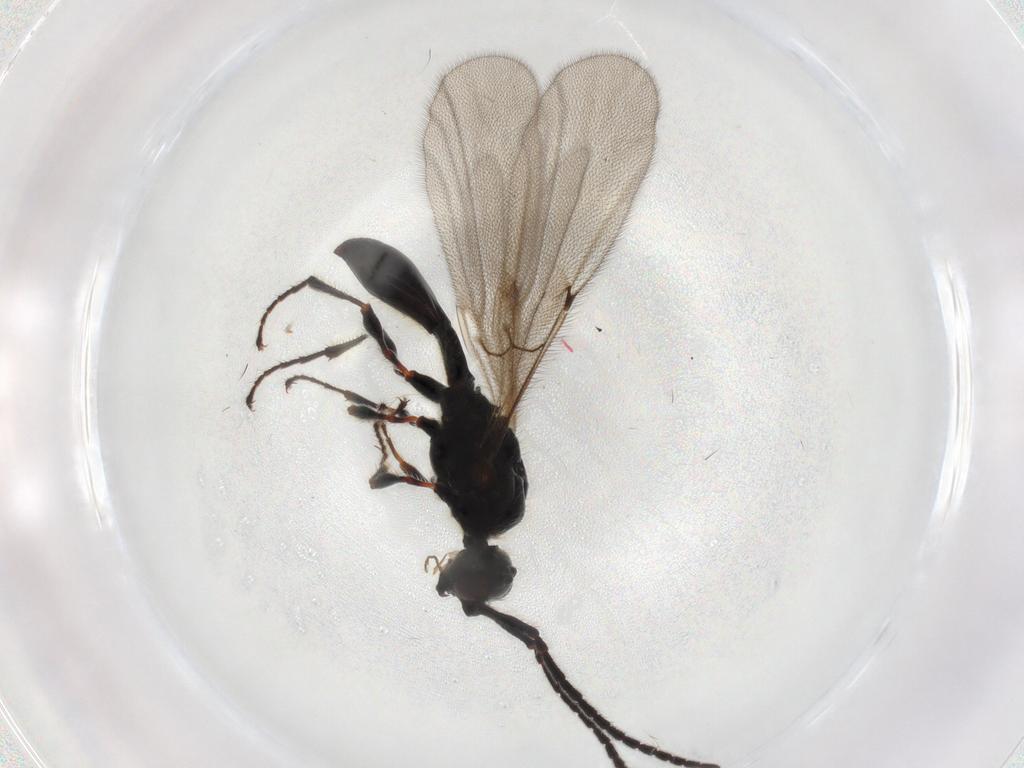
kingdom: Animalia
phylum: Arthropoda
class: Insecta
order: Hymenoptera
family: Diapriidae
